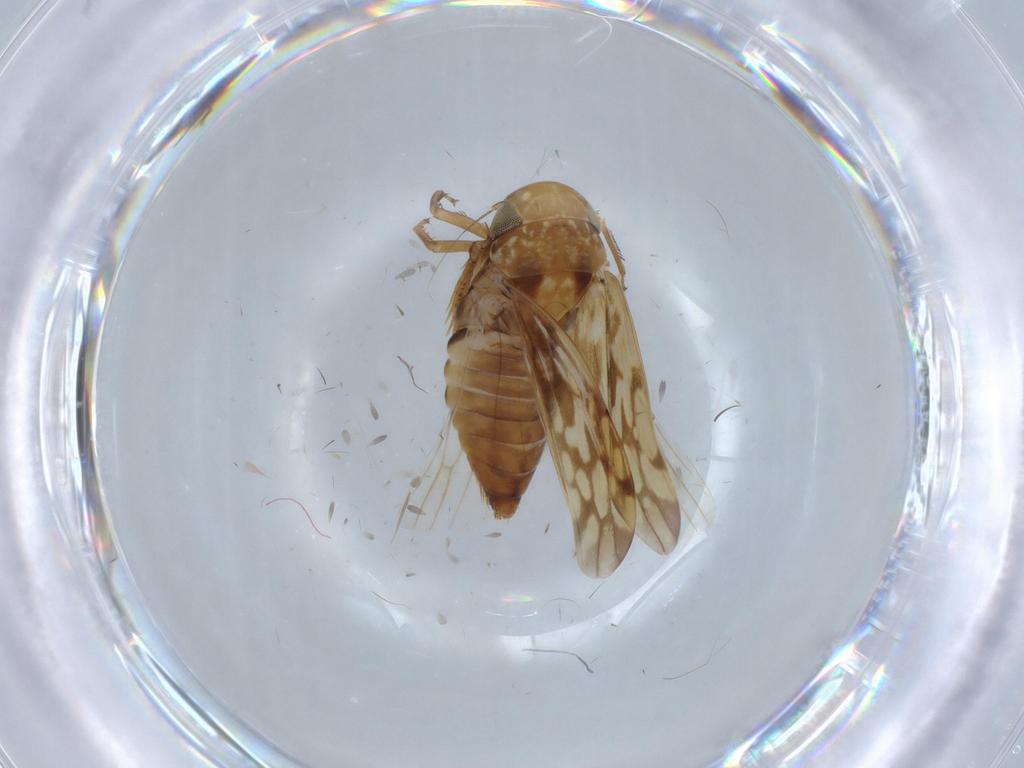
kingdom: Animalia
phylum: Arthropoda
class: Insecta
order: Hemiptera
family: Cicadellidae
